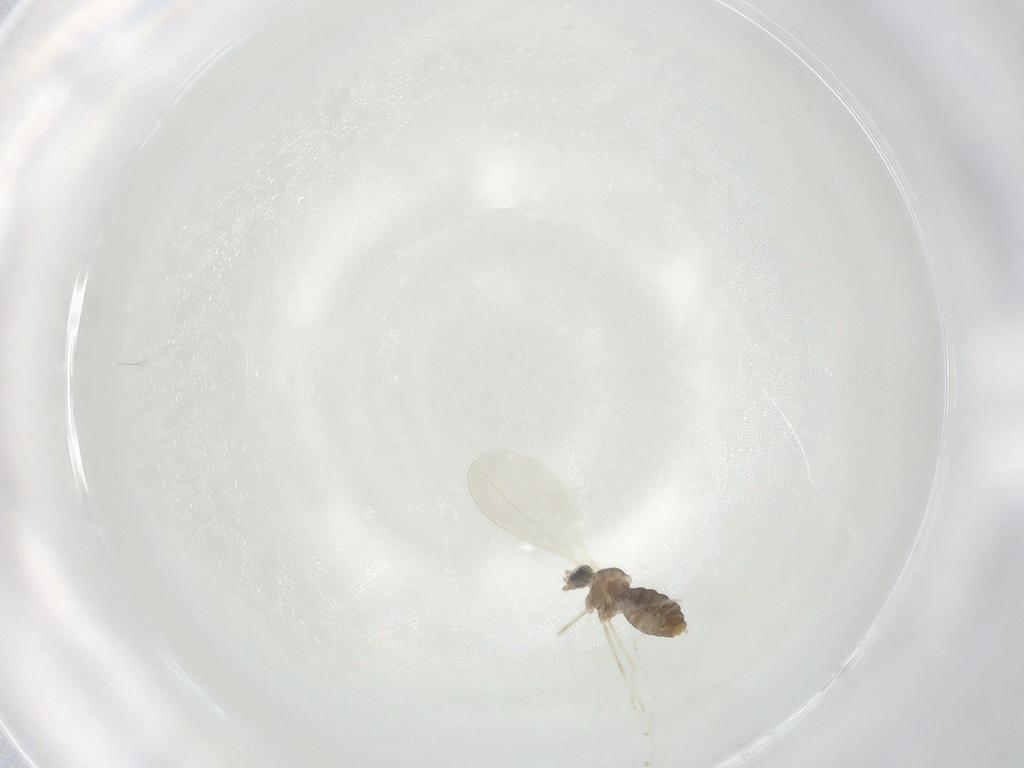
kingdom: Animalia
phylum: Arthropoda
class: Insecta
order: Diptera
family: Cecidomyiidae
